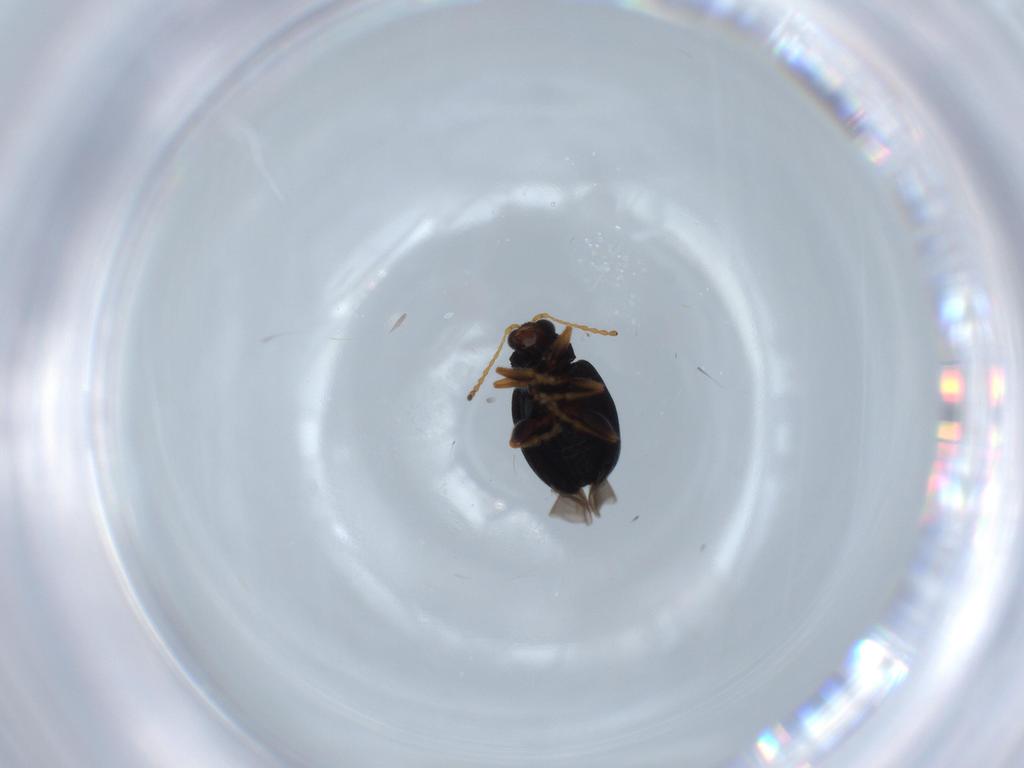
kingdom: Animalia
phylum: Arthropoda
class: Insecta
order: Coleoptera
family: Chrysomelidae
